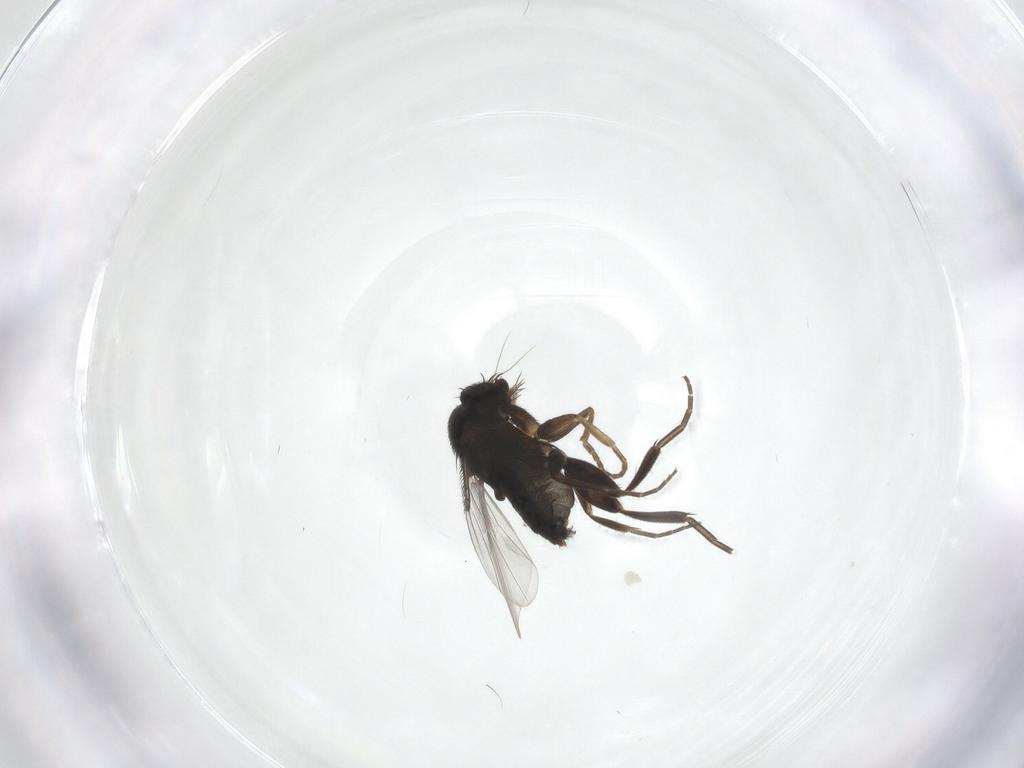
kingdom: Animalia
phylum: Arthropoda
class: Insecta
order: Diptera
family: Phoridae
